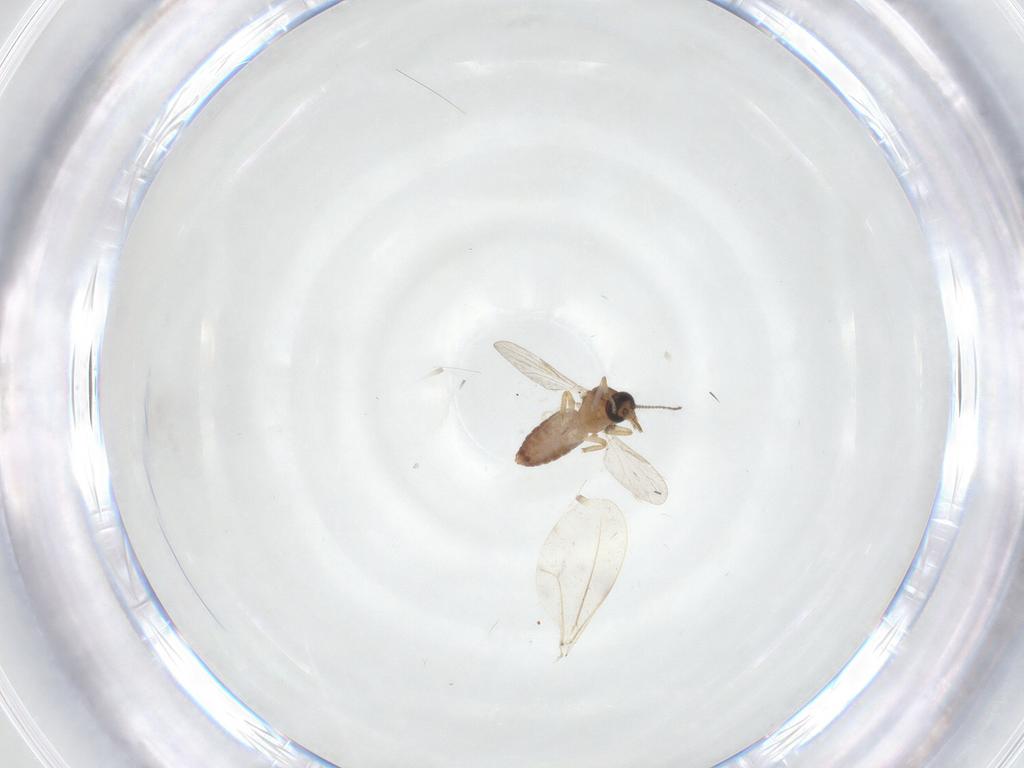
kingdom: Animalia
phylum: Arthropoda
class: Insecta
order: Diptera
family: Ceratopogonidae
